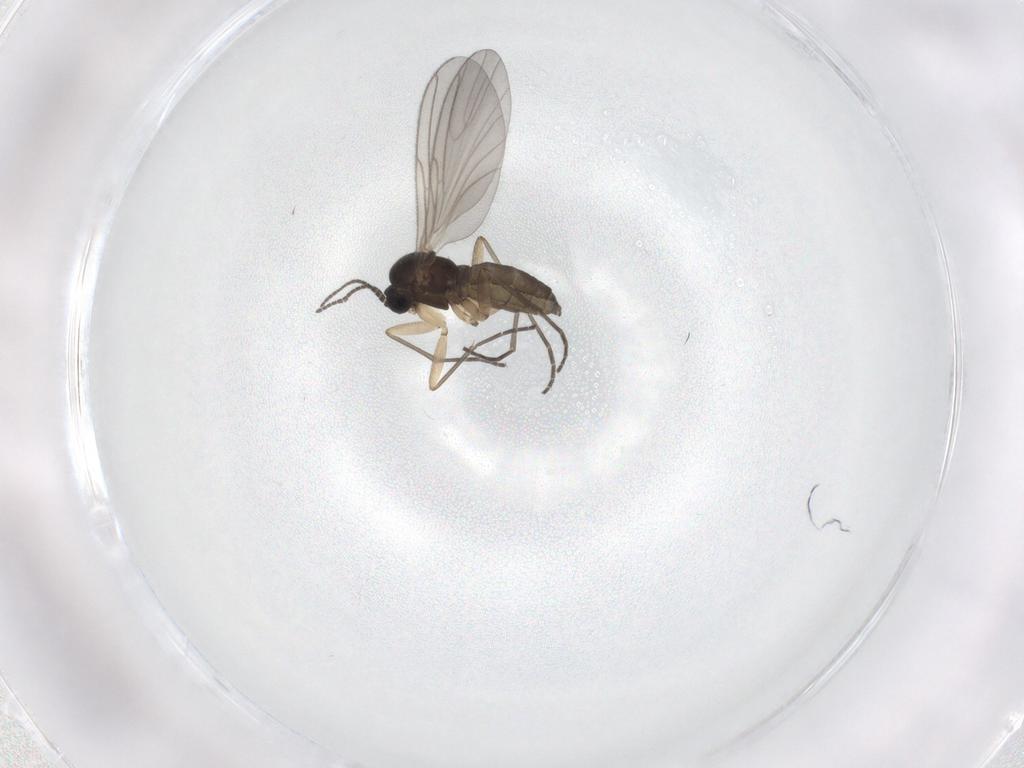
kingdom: Animalia
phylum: Arthropoda
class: Insecta
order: Diptera
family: Sciaridae
